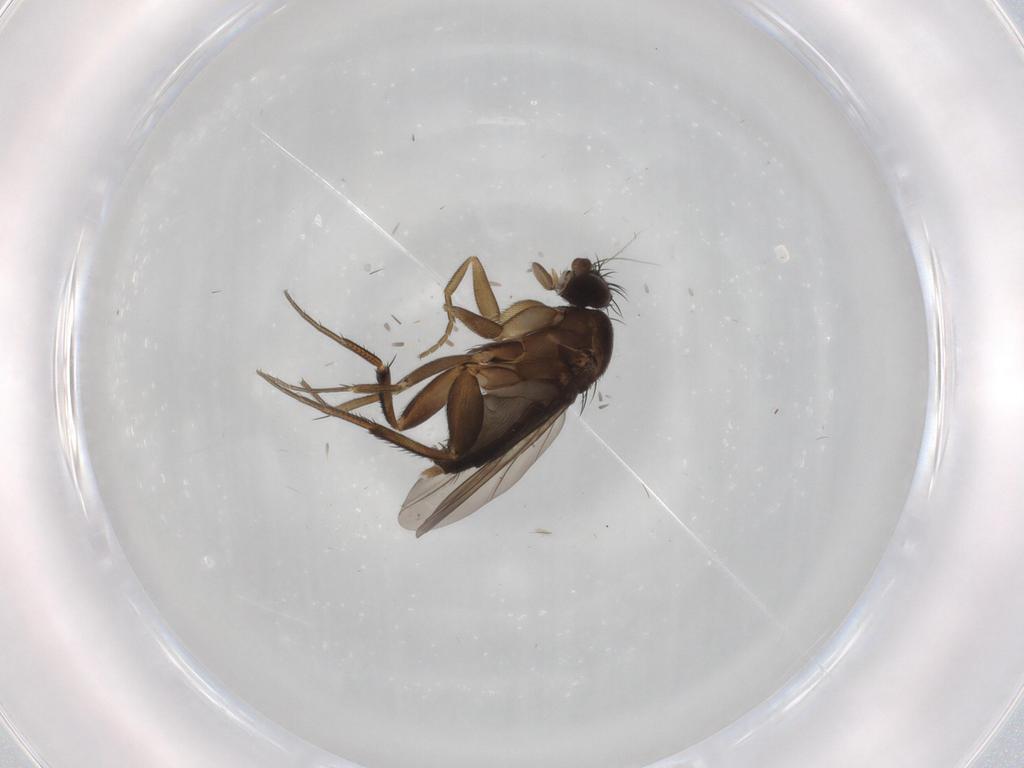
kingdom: Animalia
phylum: Arthropoda
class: Insecta
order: Diptera
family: Phoridae
